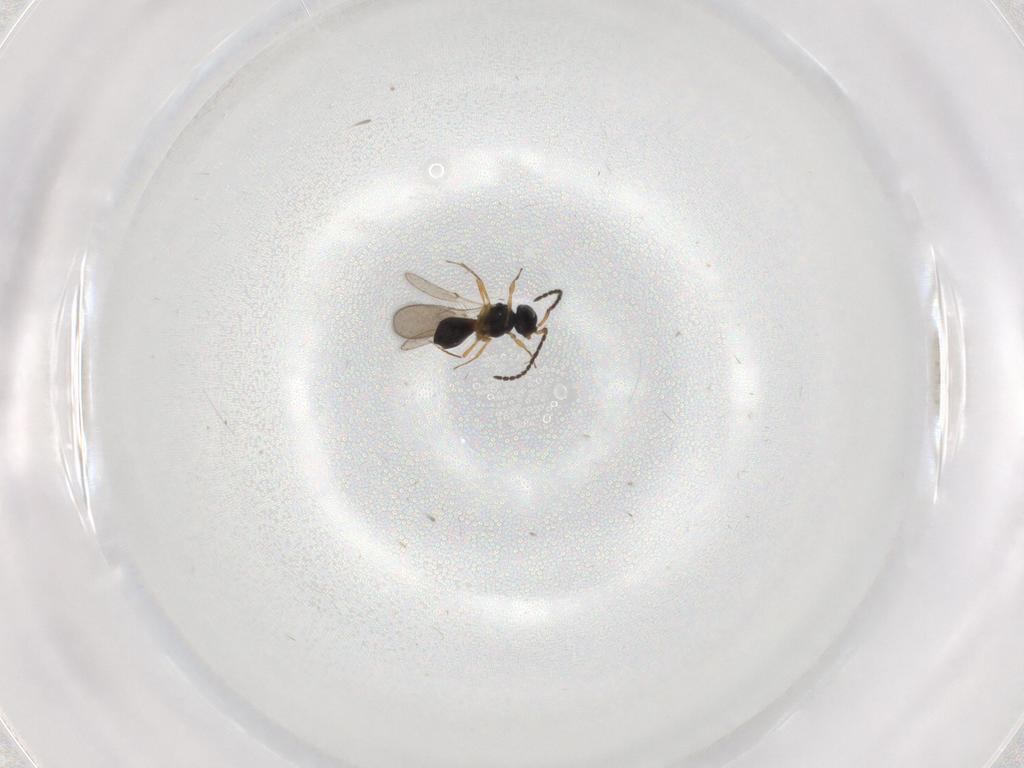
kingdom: Animalia
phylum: Arthropoda
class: Insecta
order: Hymenoptera
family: Scelionidae
